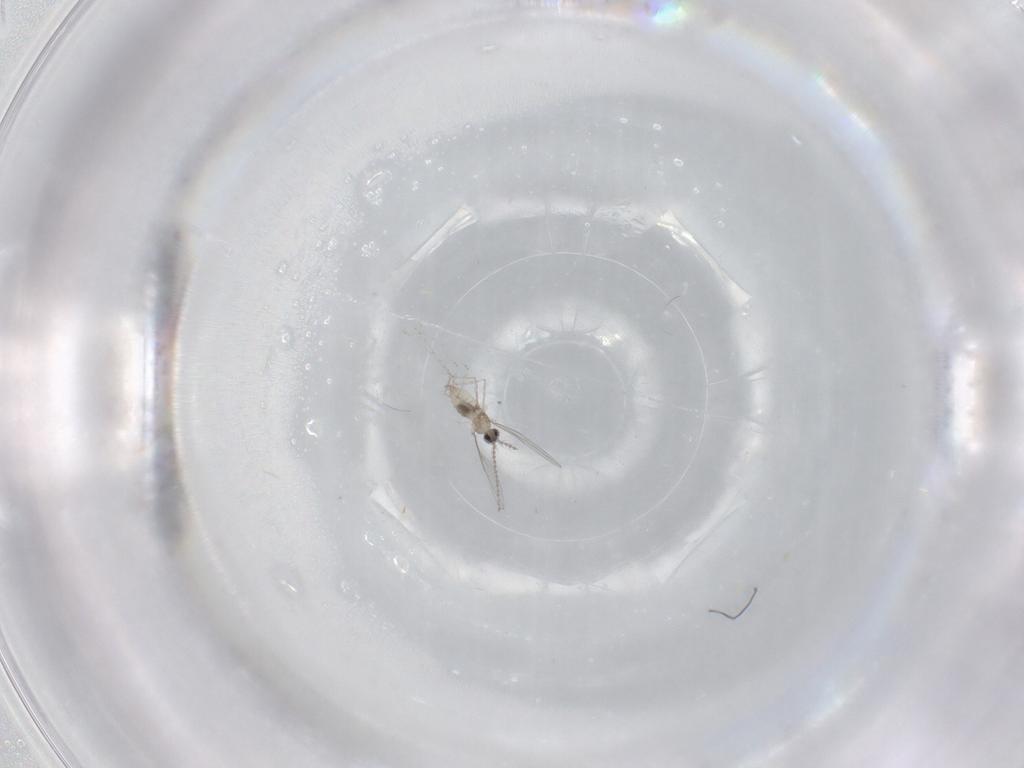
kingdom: Animalia
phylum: Arthropoda
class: Insecta
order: Diptera
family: Cecidomyiidae
